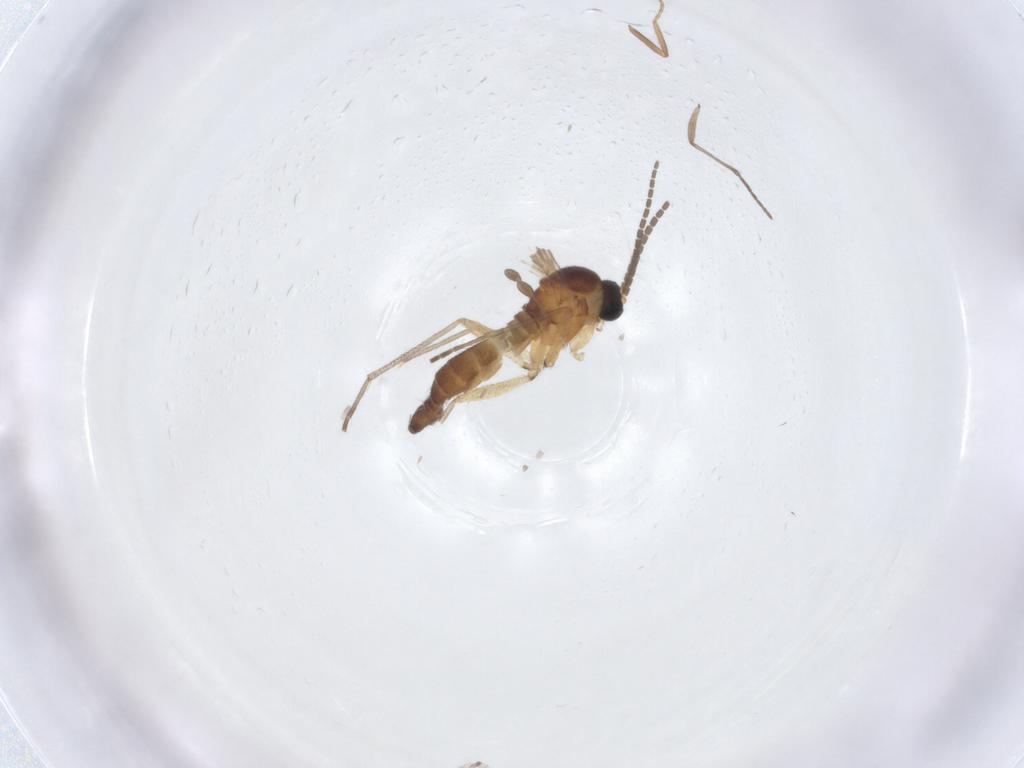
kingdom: Animalia
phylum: Arthropoda
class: Insecta
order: Diptera
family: Sciaridae
